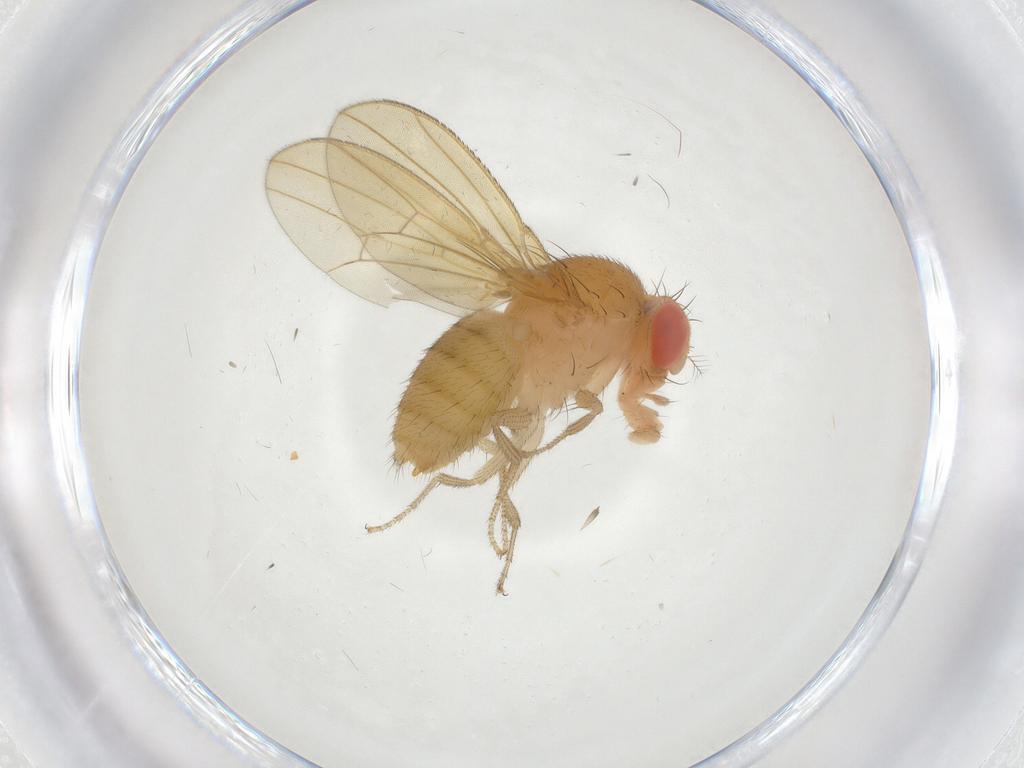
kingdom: Animalia
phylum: Arthropoda
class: Insecta
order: Diptera
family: Drosophilidae
